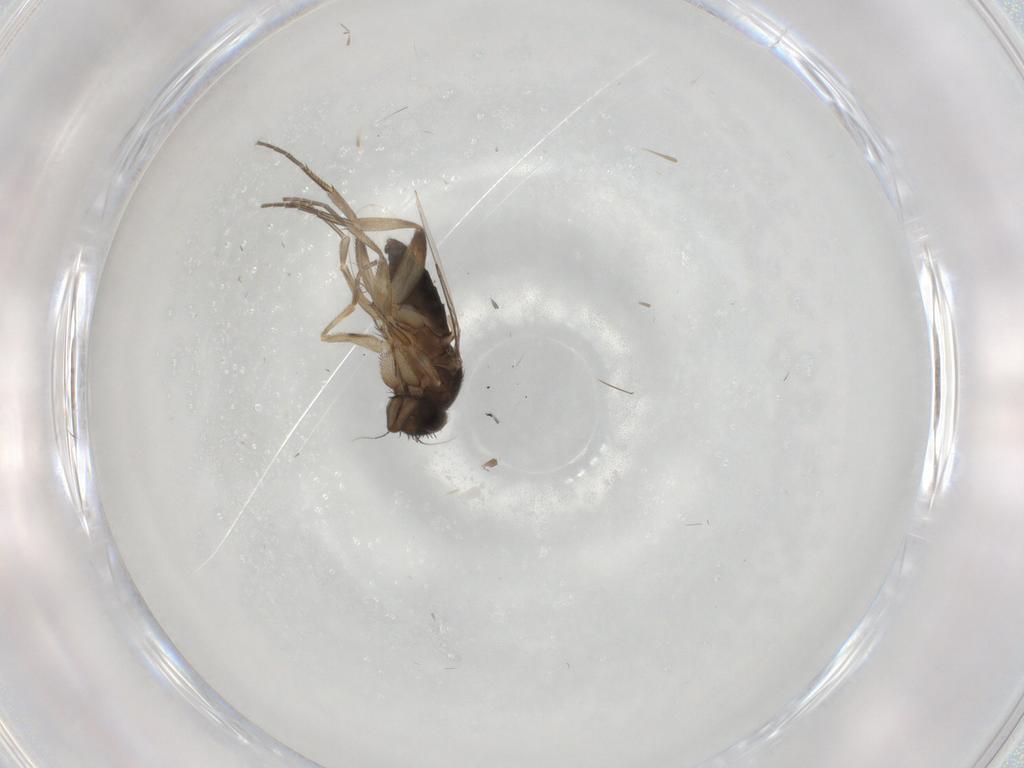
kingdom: Animalia
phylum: Arthropoda
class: Insecta
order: Diptera
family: Phoridae
